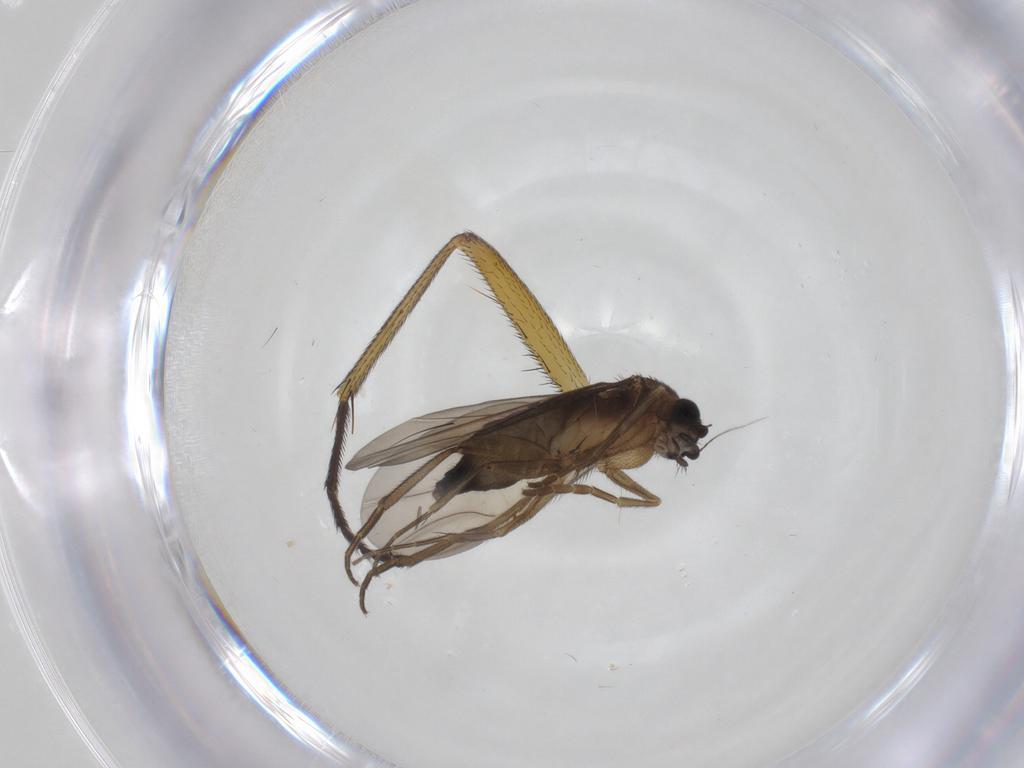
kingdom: Animalia
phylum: Arthropoda
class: Insecta
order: Diptera
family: Phoridae
